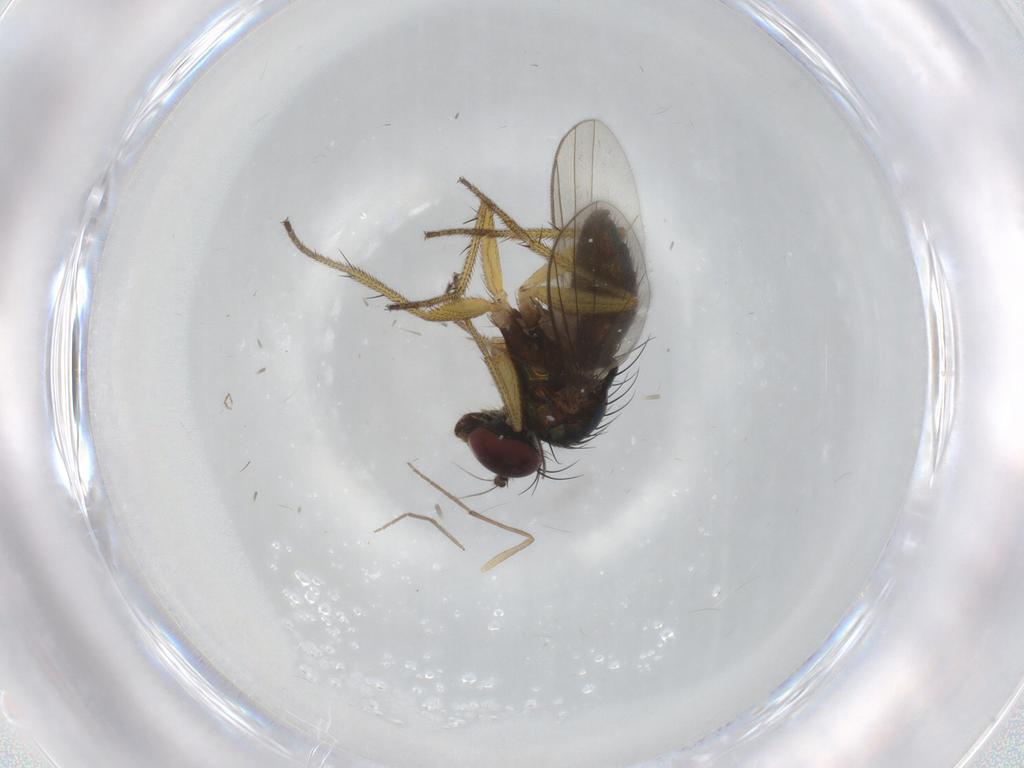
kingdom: Animalia
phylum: Arthropoda
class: Insecta
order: Diptera
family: Chironomidae
